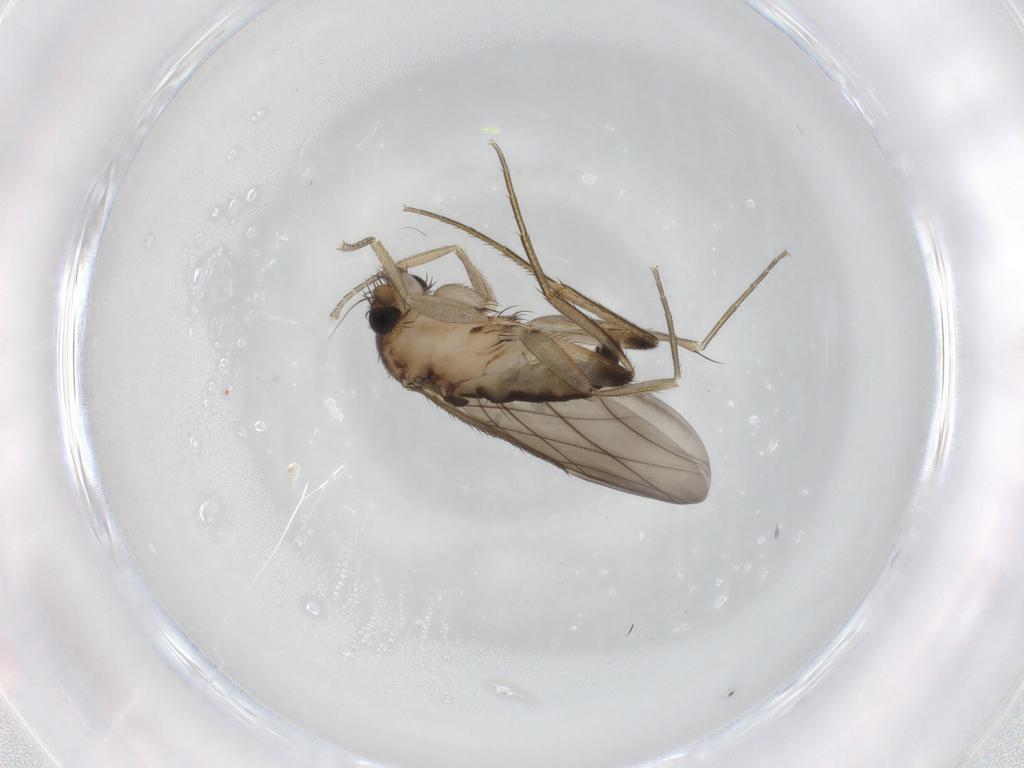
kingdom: Animalia
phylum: Arthropoda
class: Insecta
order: Diptera
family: Phoridae
